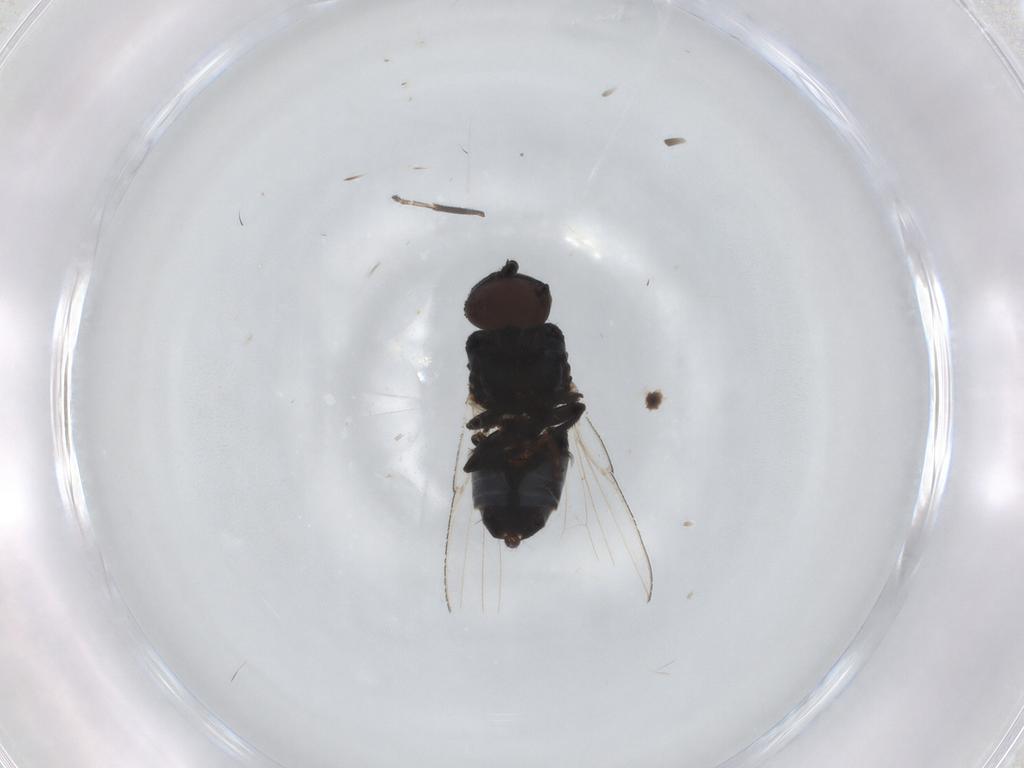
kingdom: Animalia
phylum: Arthropoda
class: Insecta
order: Diptera
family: Milichiidae
